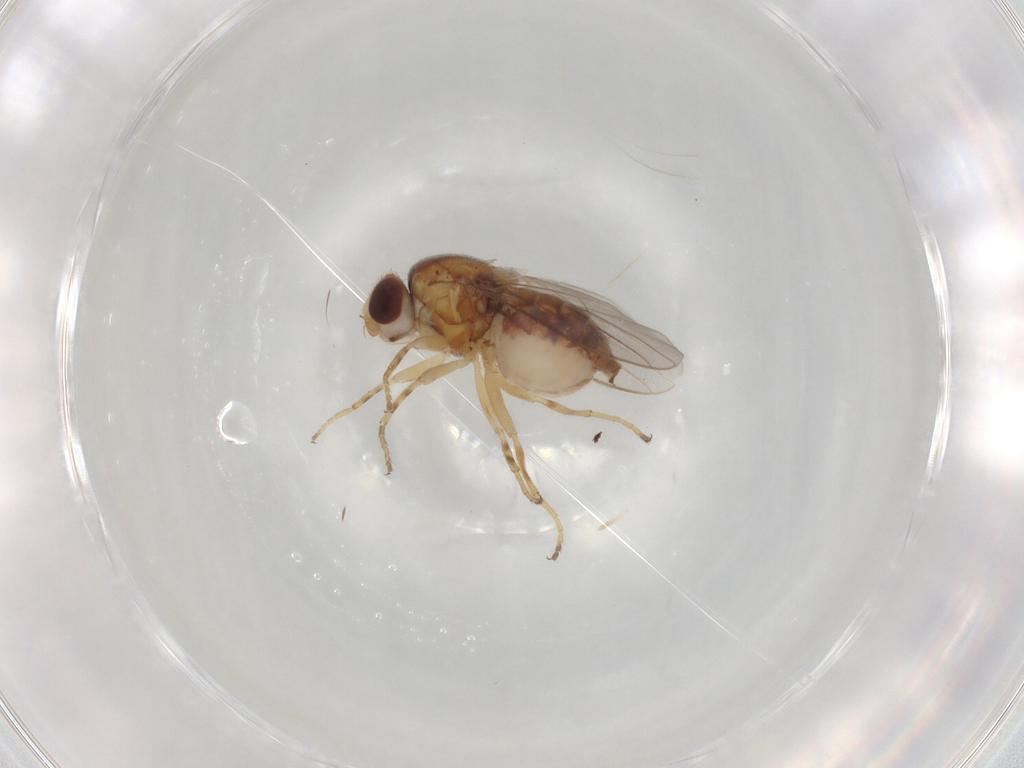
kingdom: Animalia
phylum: Arthropoda
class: Insecta
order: Diptera
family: Chloropidae
